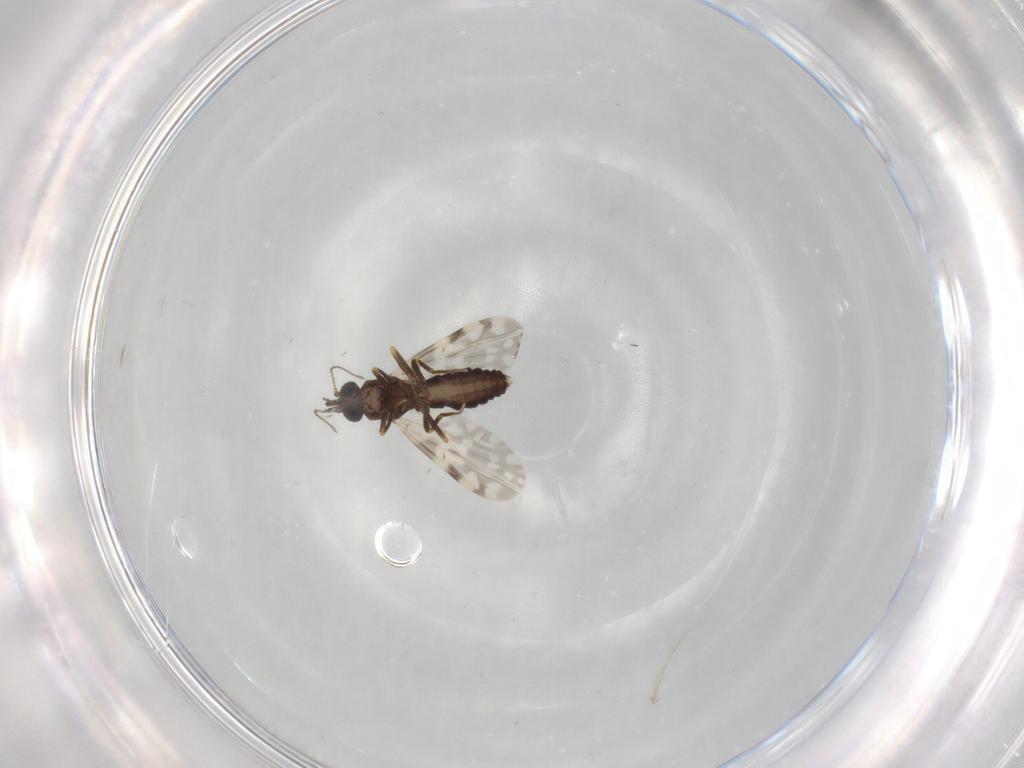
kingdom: Animalia
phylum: Arthropoda
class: Insecta
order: Diptera
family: Ceratopogonidae
